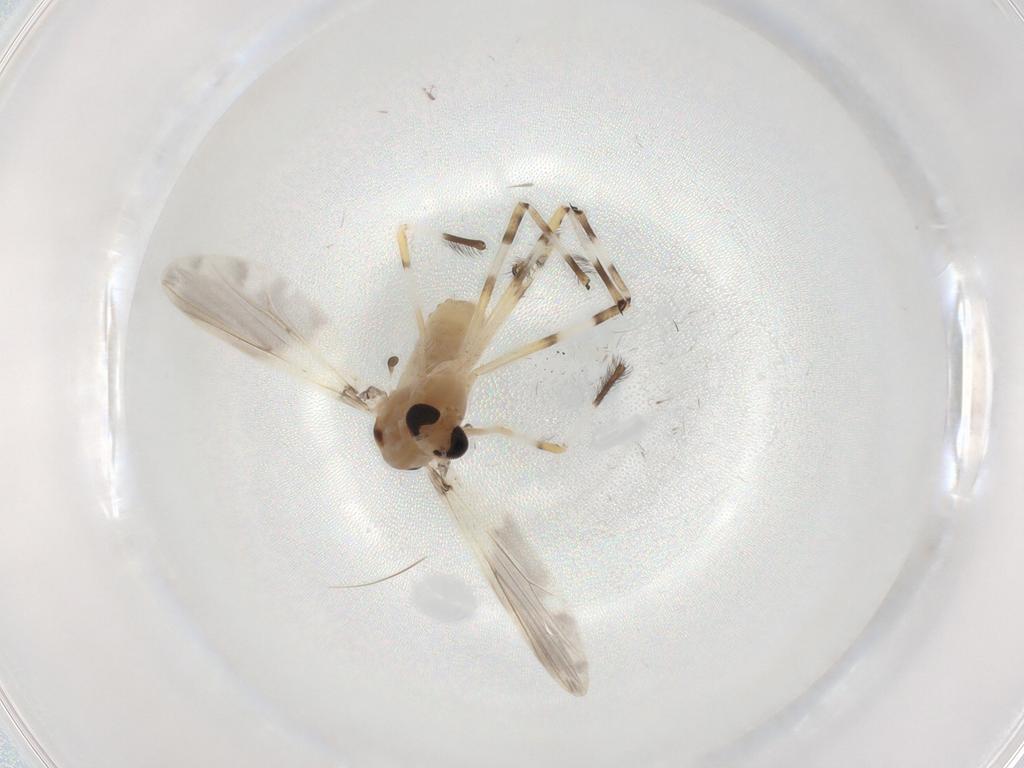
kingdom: Animalia
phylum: Arthropoda
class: Insecta
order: Diptera
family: Chironomidae
